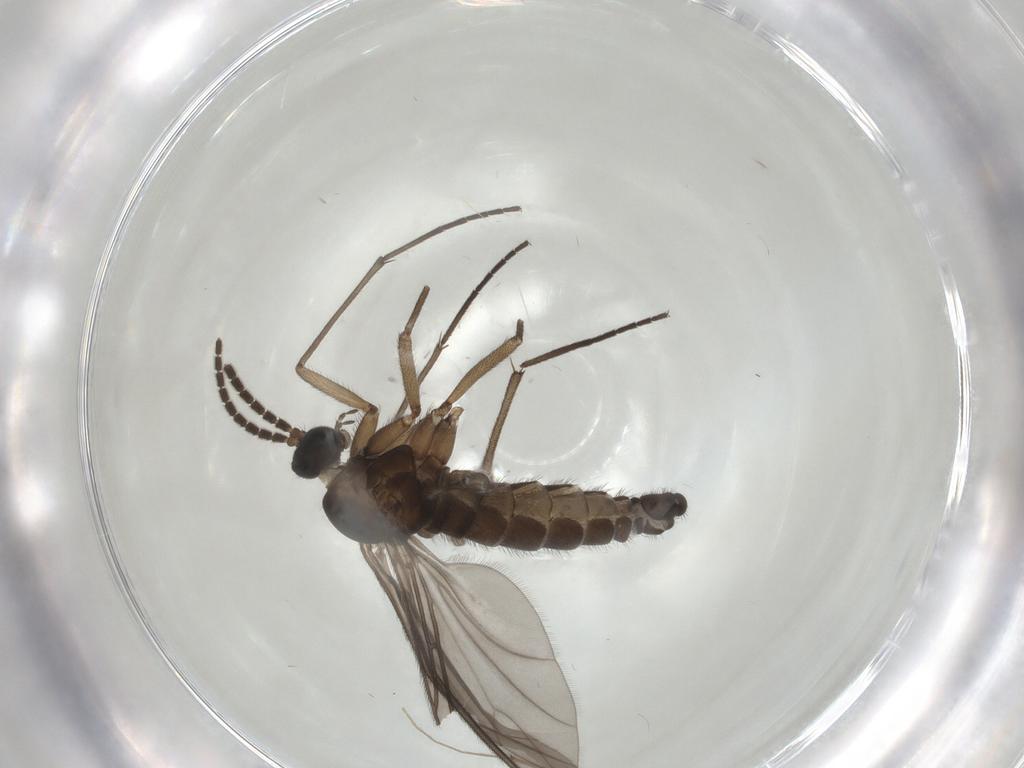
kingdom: Animalia
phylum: Arthropoda
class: Insecta
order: Diptera
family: Sciaridae
